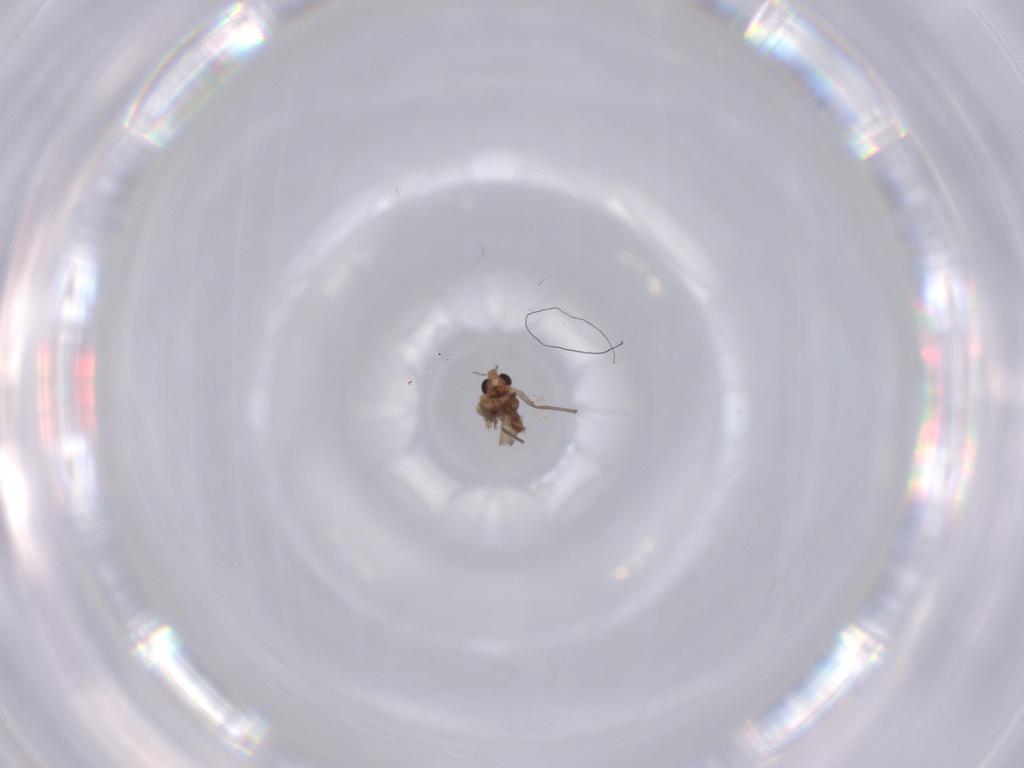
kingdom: Animalia
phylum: Arthropoda
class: Insecta
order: Diptera
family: Chironomidae
